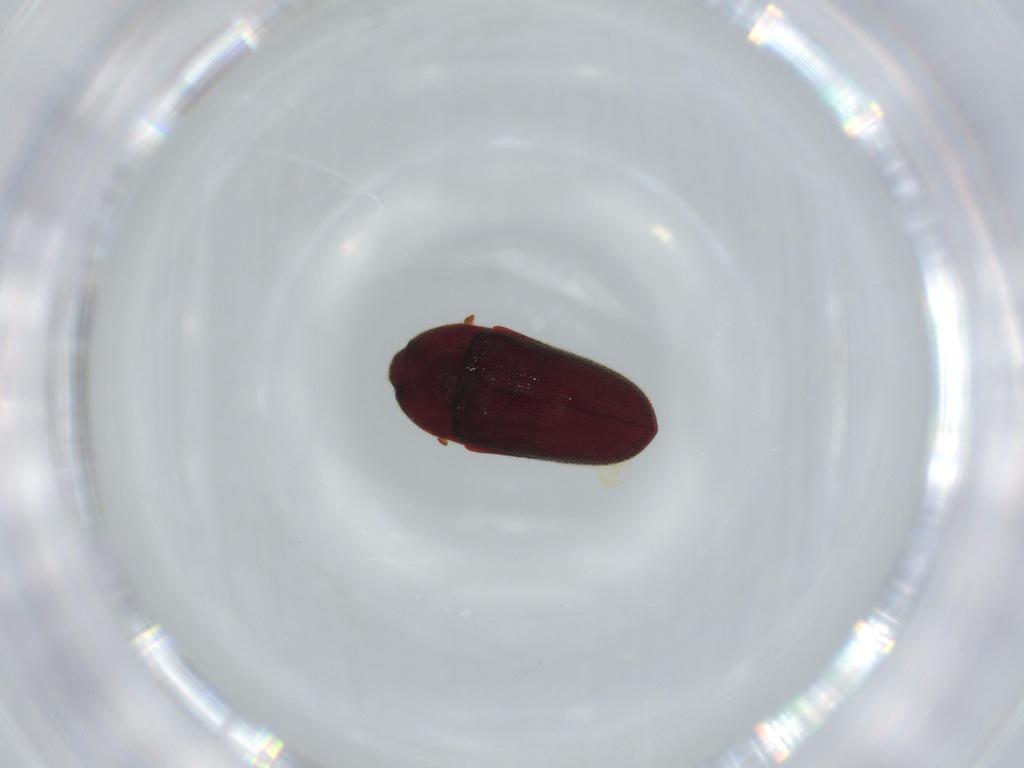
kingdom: Animalia
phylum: Arthropoda
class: Insecta
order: Coleoptera
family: Throscidae
